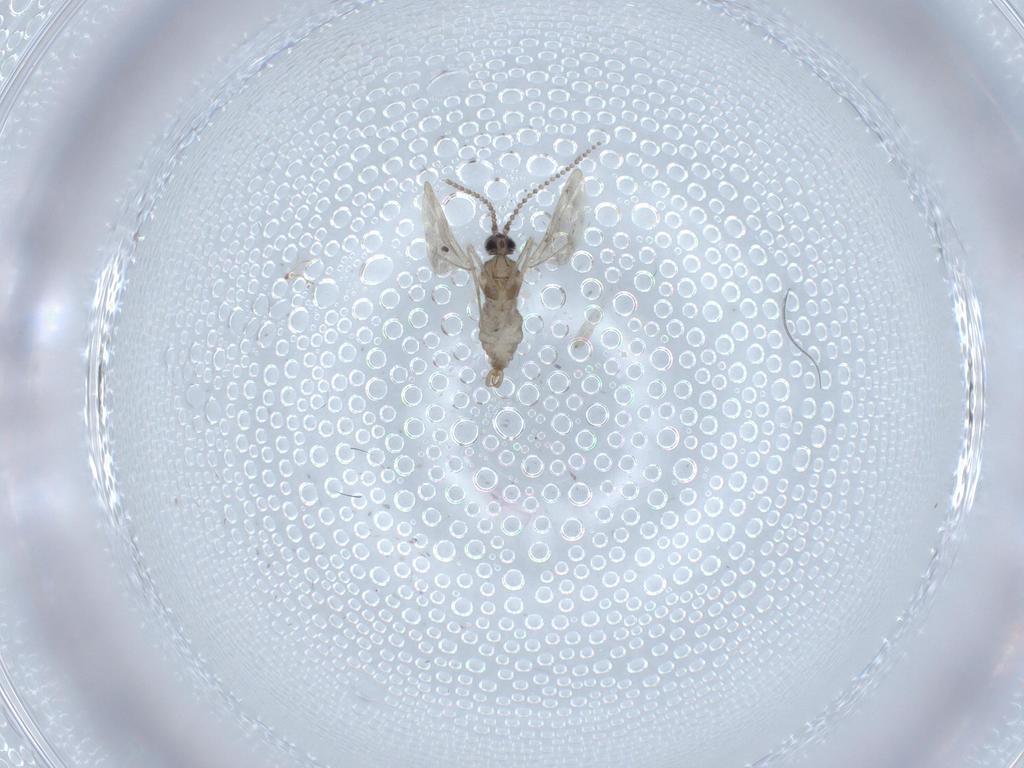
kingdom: Animalia
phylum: Arthropoda
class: Insecta
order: Diptera
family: Cecidomyiidae
